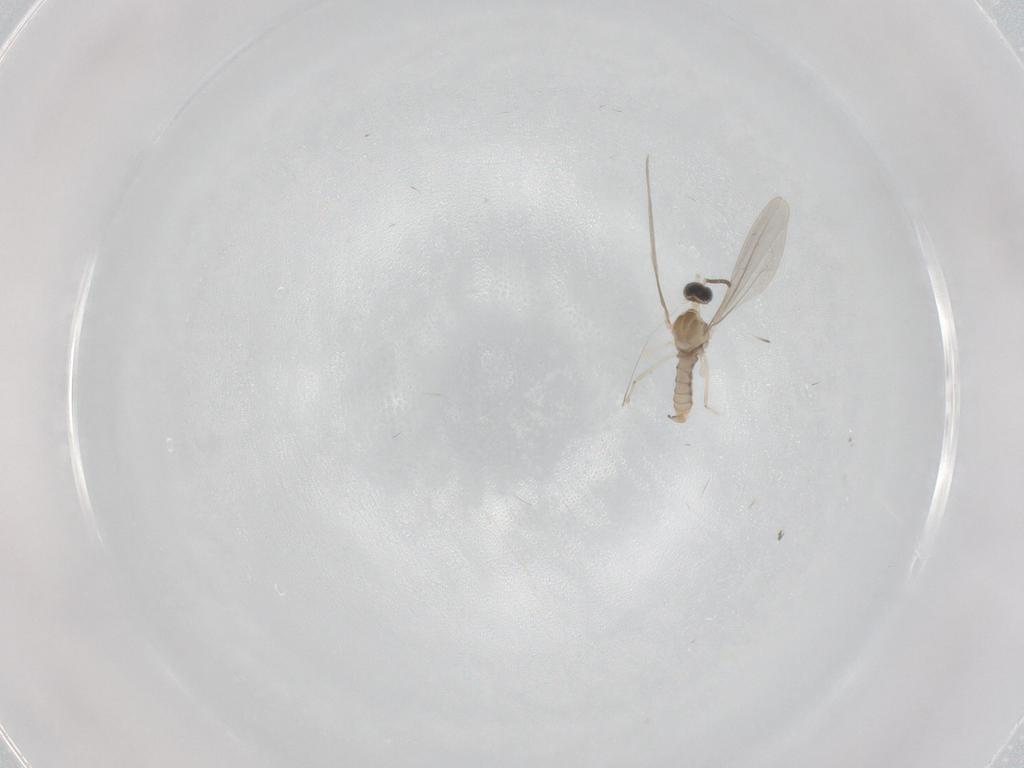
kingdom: Animalia
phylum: Arthropoda
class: Insecta
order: Diptera
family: Cecidomyiidae
